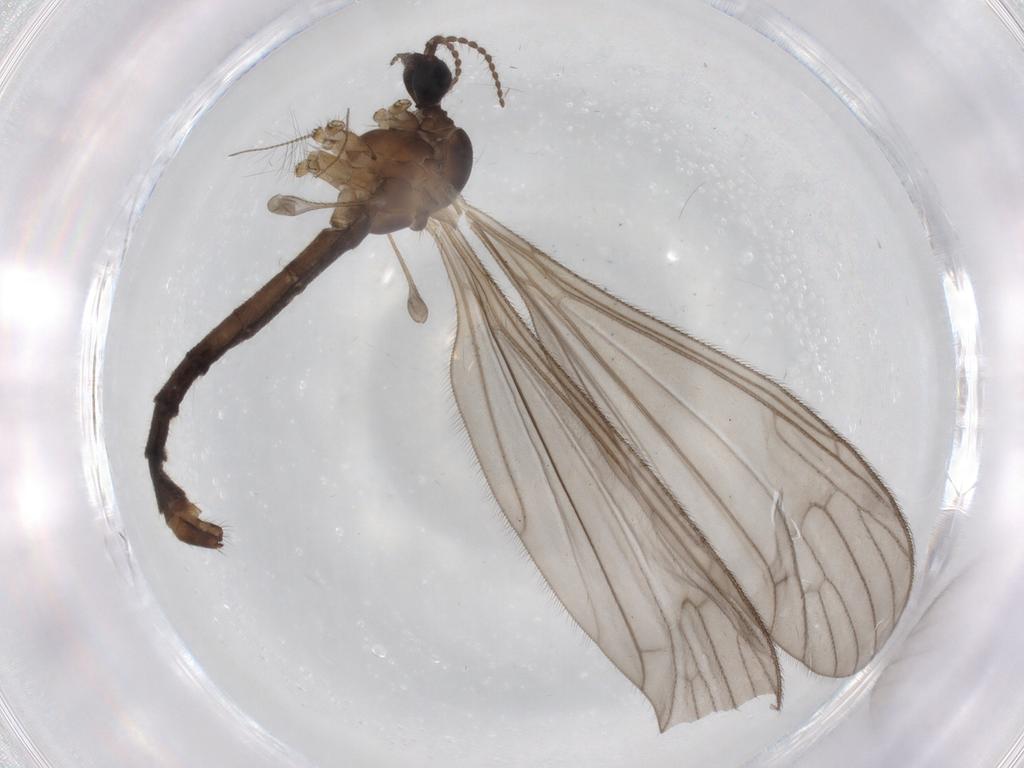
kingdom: Animalia
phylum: Arthropoda
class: Insecta
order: Diptera
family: Limoniidae
